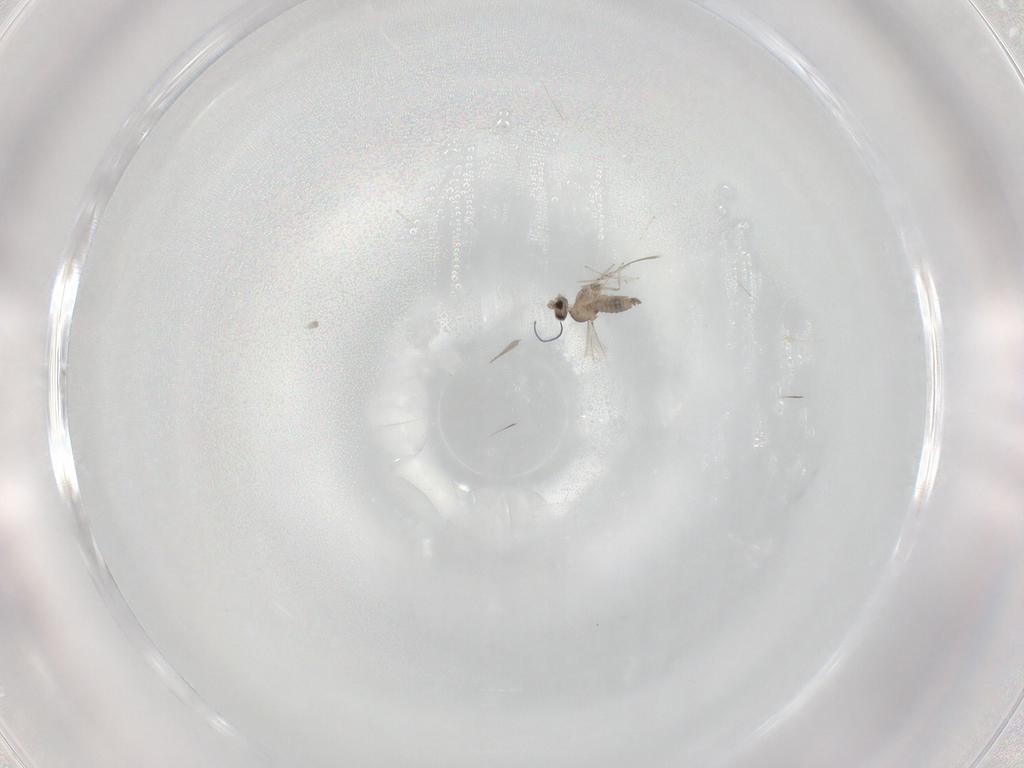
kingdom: Animalia
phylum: Arthropoda
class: Insecta
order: Diptera
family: Cecidomyiidae
